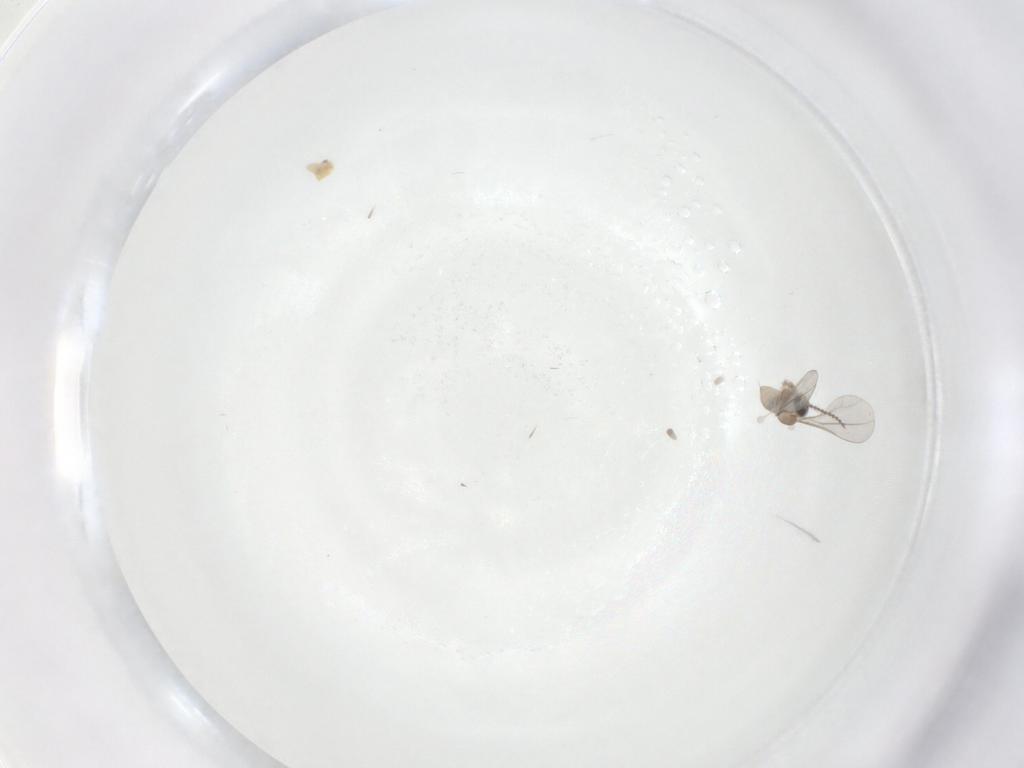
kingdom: Animalia
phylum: Arthropoda
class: Insecta
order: Diptera
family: Cecidomyiidae
